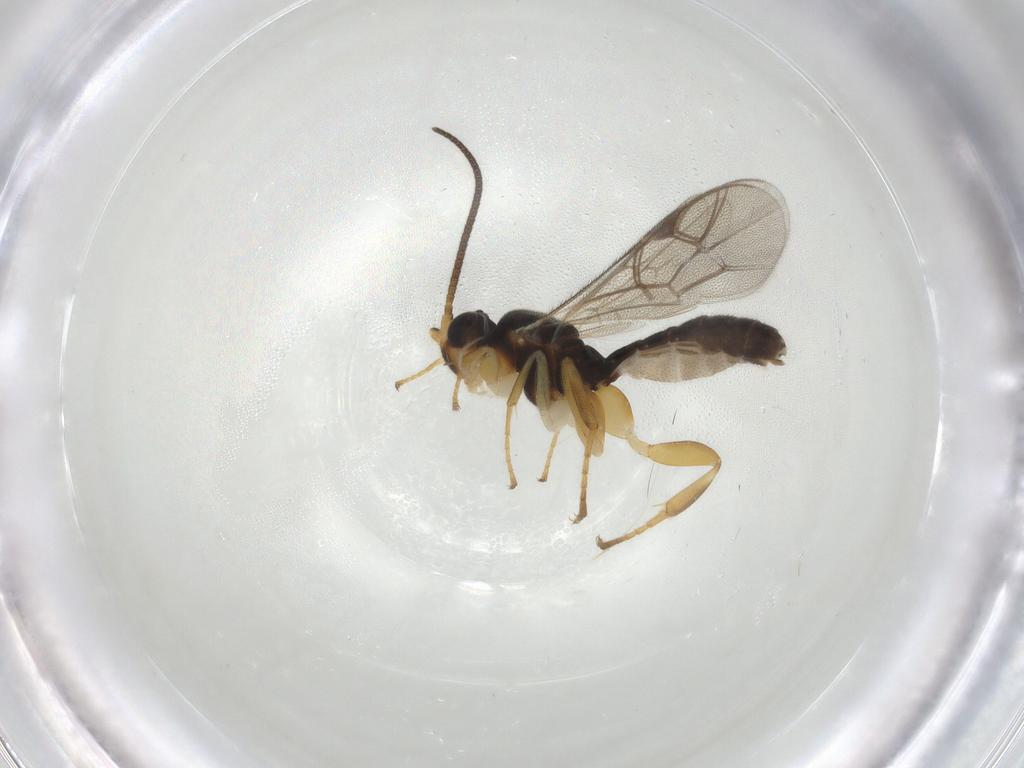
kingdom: Animalia
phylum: Arthropoda
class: Insecta
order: Hymenoptera
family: Ichneumonidae
